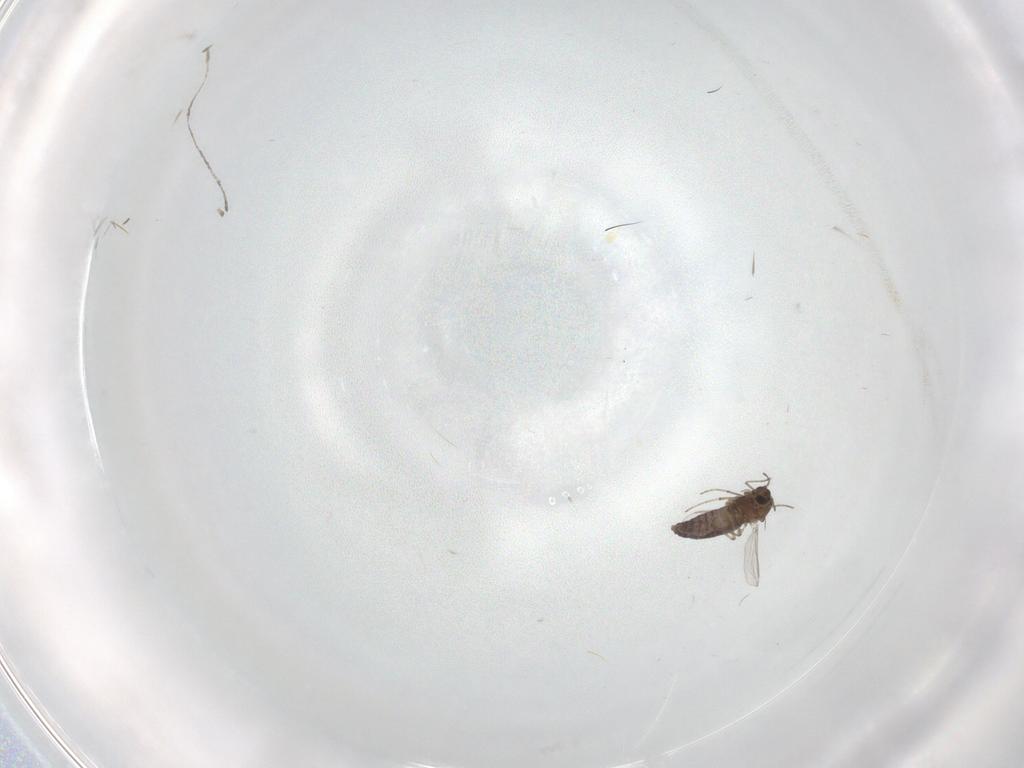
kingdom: Animalia
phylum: Arthropoda
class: Insecta
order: Diptera
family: Chironomidae
